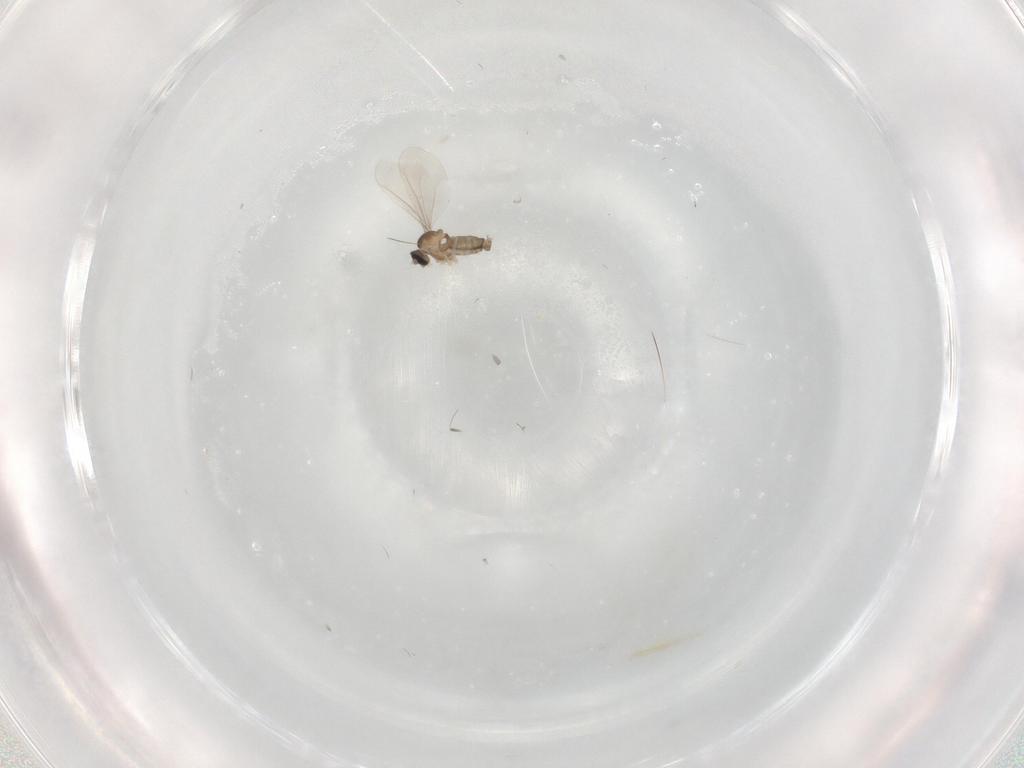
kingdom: Animalia
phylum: Arthropoda
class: Insecta
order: Diptera
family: Cecidomyiidae
